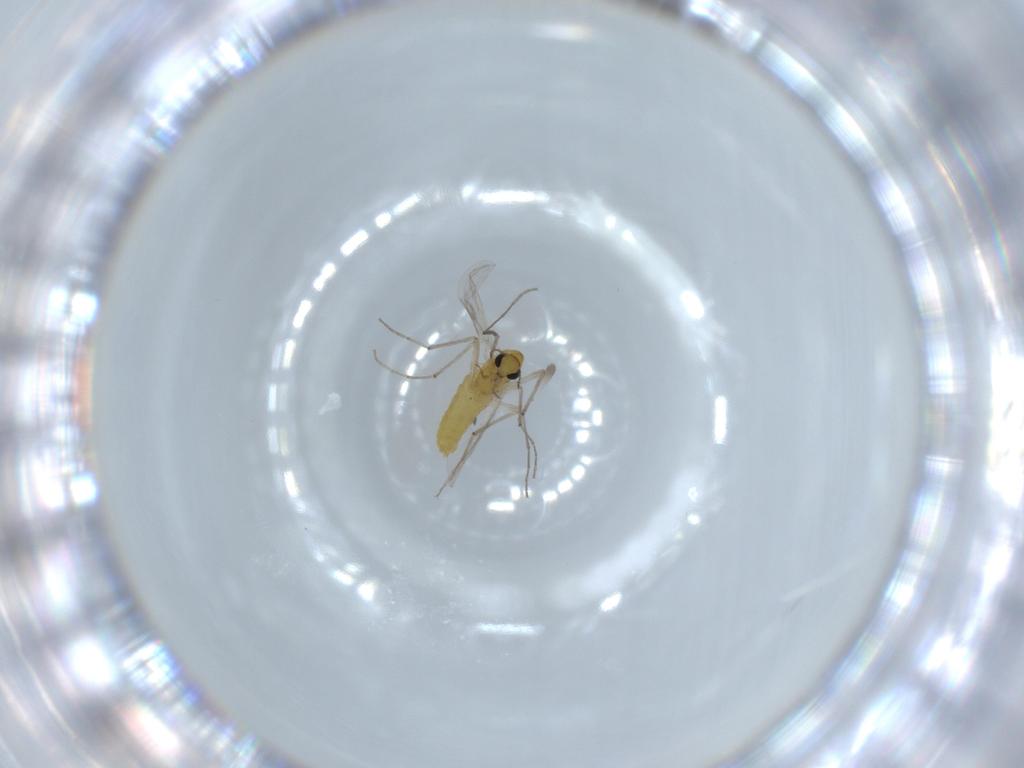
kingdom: Animalia
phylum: Arthropoda
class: Insecta
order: Diptera
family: Chironomidae
